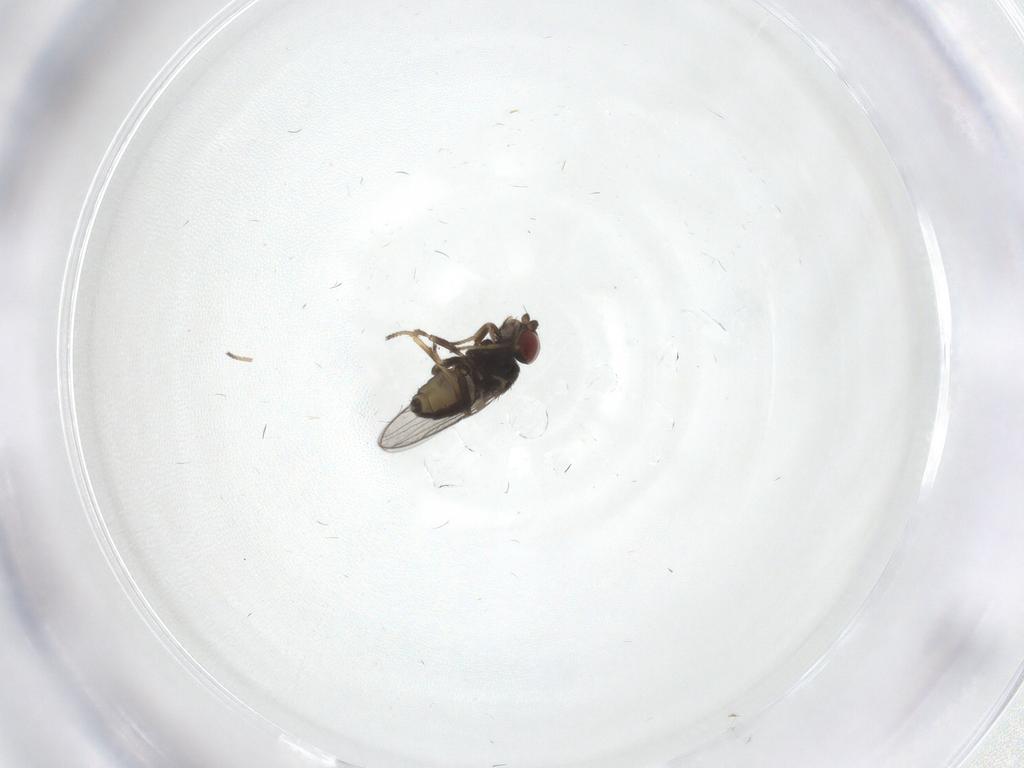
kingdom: Animalia
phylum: Arthropoda
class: Insecta
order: Diptera
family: Chloropidae
